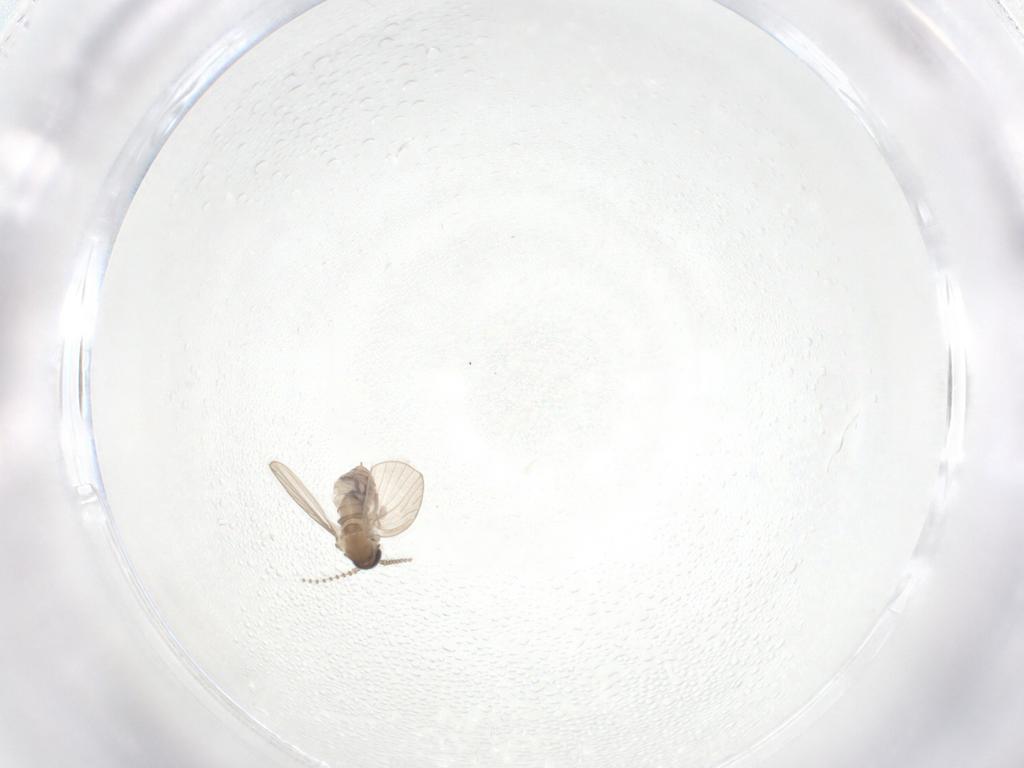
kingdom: Animalia
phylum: Arthropoda
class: Insecta
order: Diptera
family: Psychodidae
